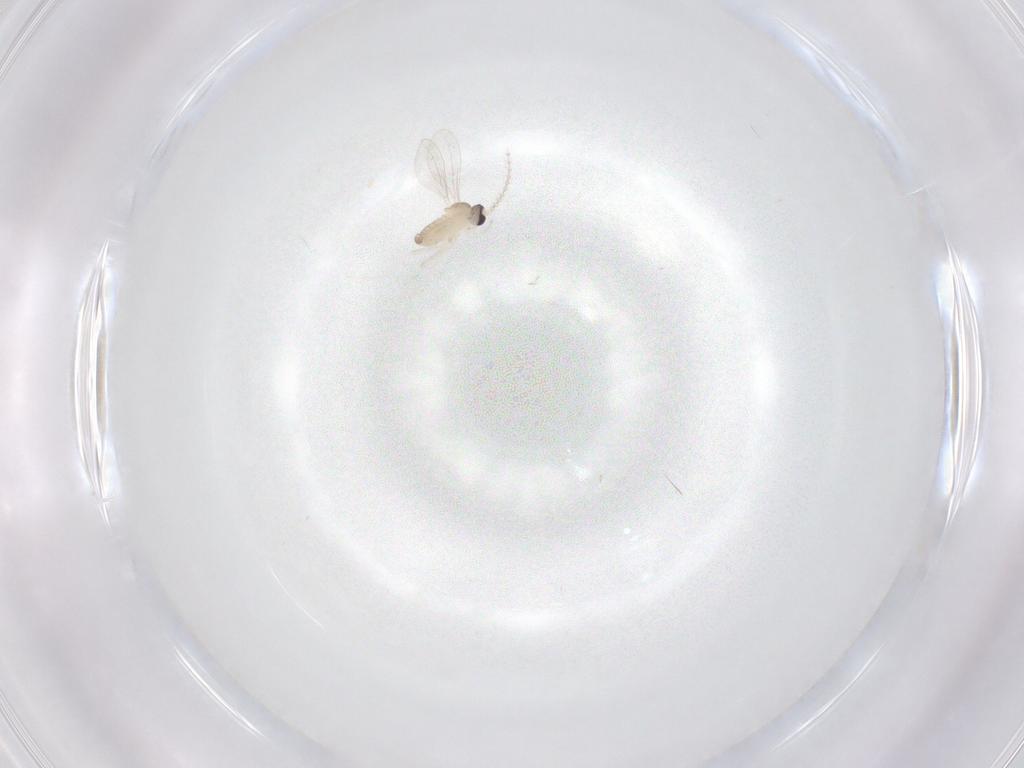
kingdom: Animalia
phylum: Arthropoda
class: Insecta
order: Diptera
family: Cecidomyiidae
